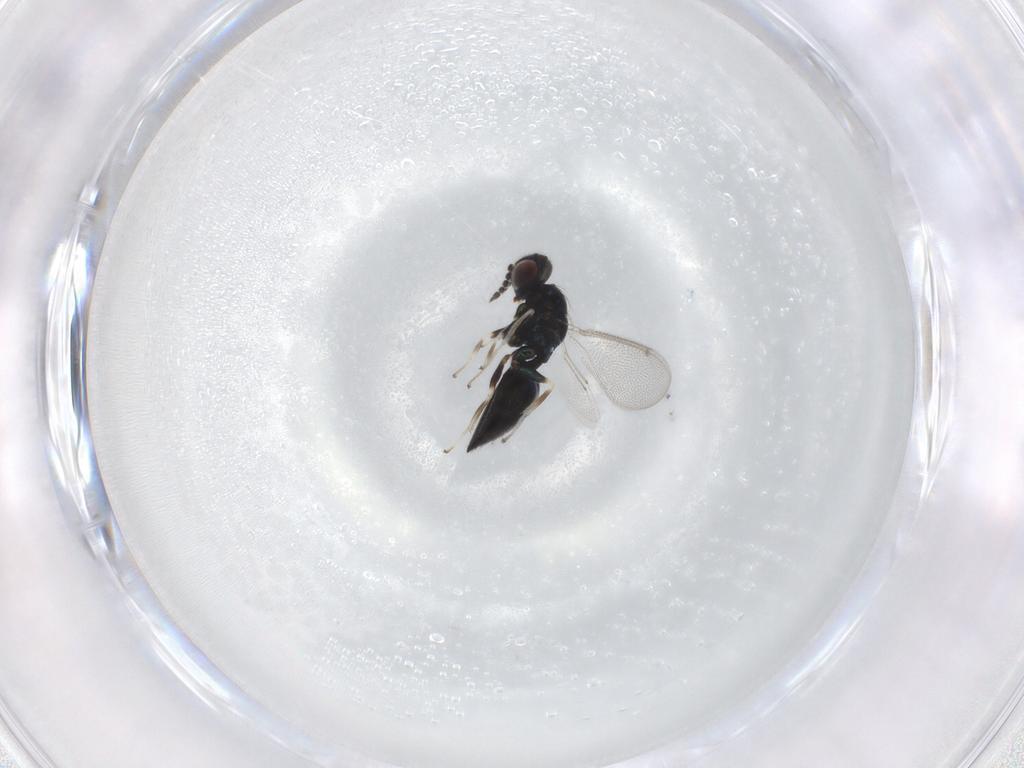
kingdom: Animalia
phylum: Arthropoda
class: Insecta
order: Hymenoptera
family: Eulophidae
